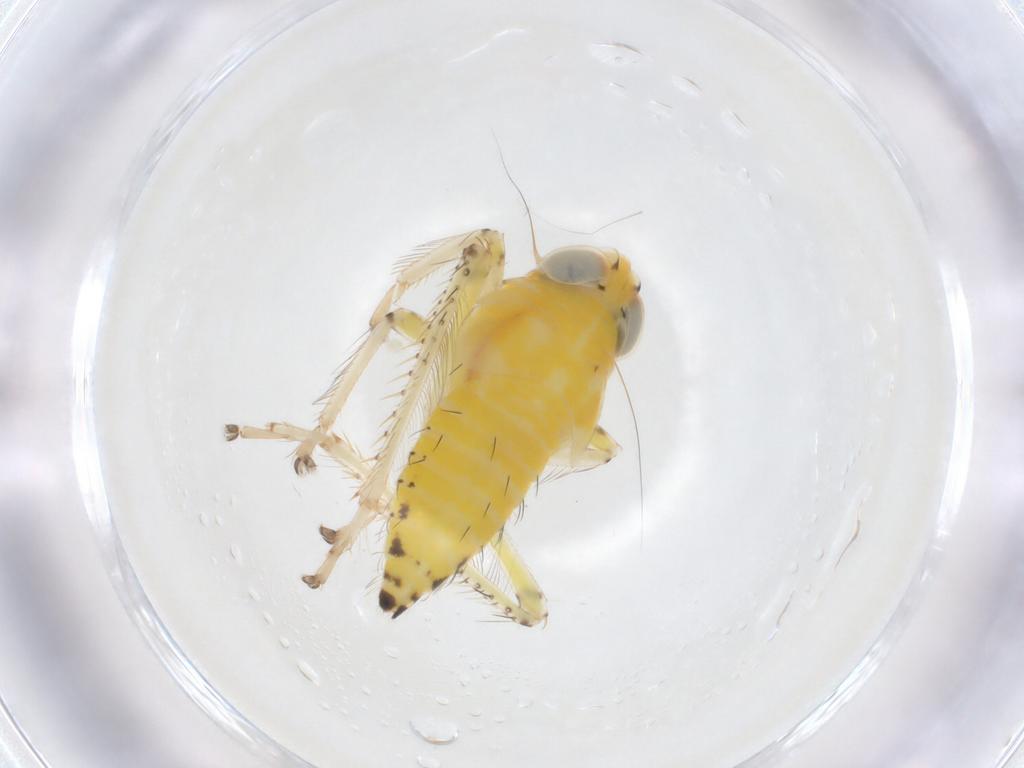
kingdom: Animalia
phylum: Arthropoda
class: Insecta
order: Hemiptera
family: Cicadellidae
